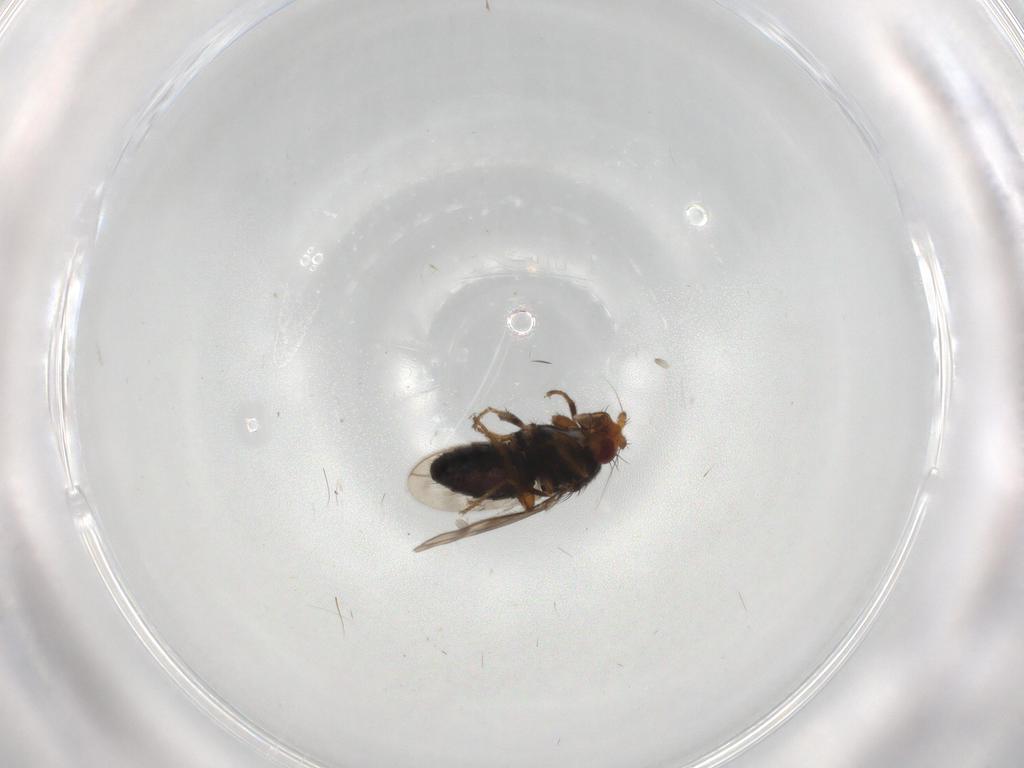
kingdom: Animalia
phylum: Arthropoda
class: Insecta
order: Diptera
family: Sphaeroceridae
